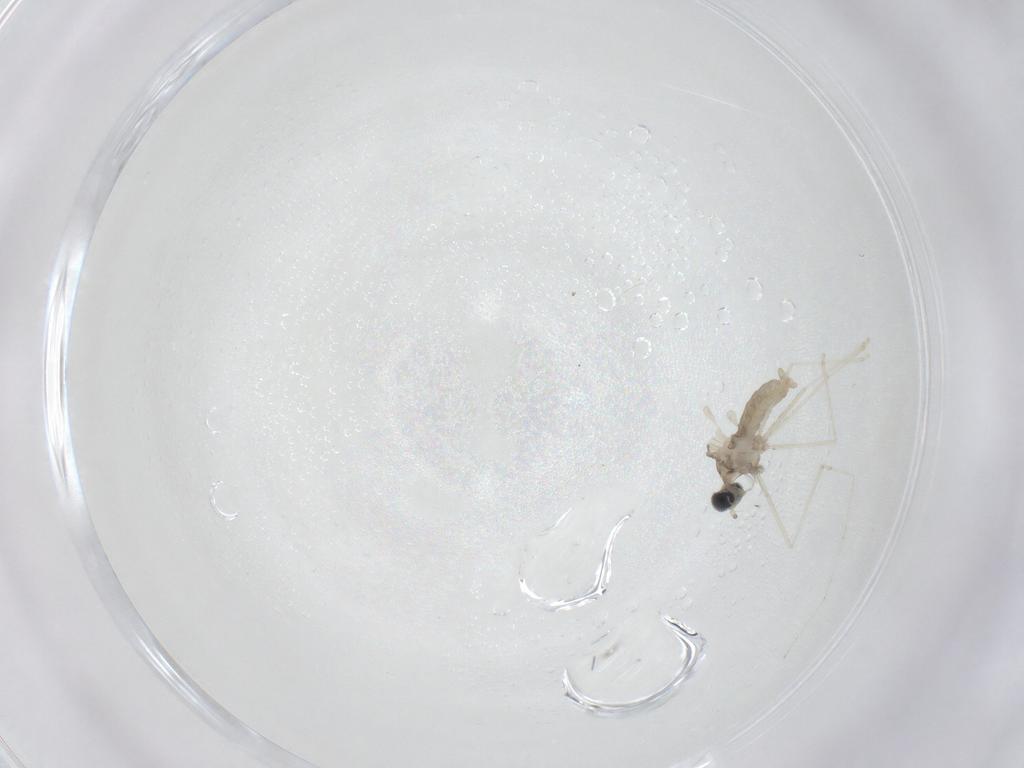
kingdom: Animalia
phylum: Arthropoda
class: Insecta
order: Diptera
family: Cecidomyiidae
